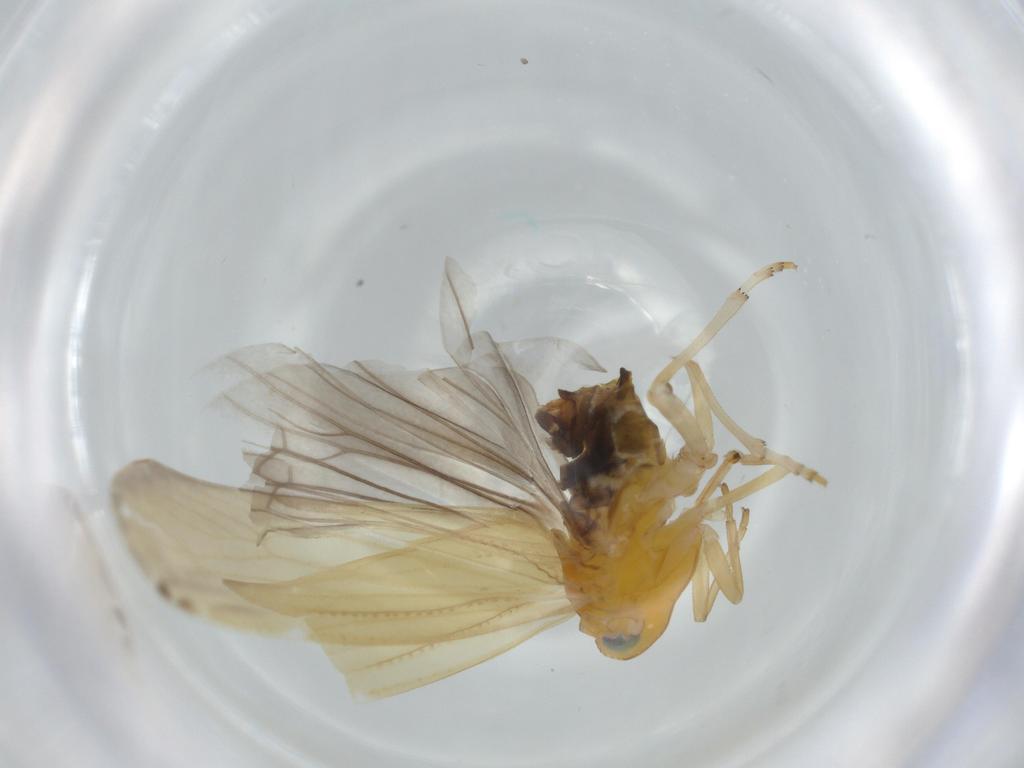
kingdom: Animalia
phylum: Arthropoda
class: Insecta
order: Hemiptera
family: Derbidae
